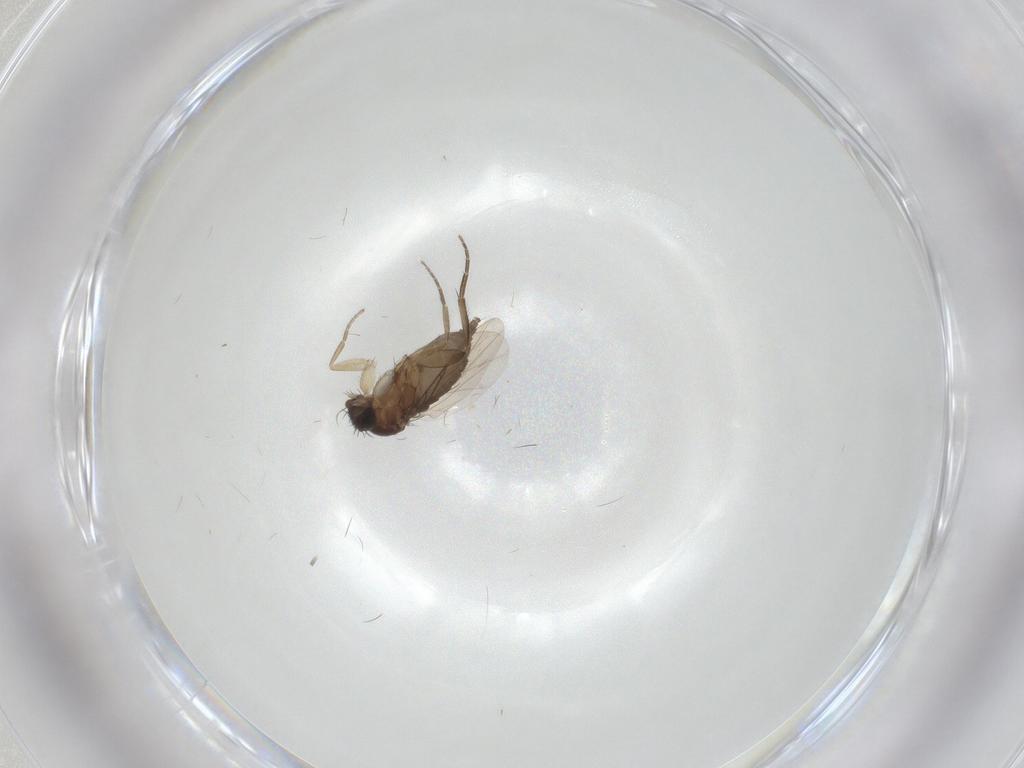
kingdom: Animalia
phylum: Arthropoda
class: Insecta
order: Diptera
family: Phoridae
